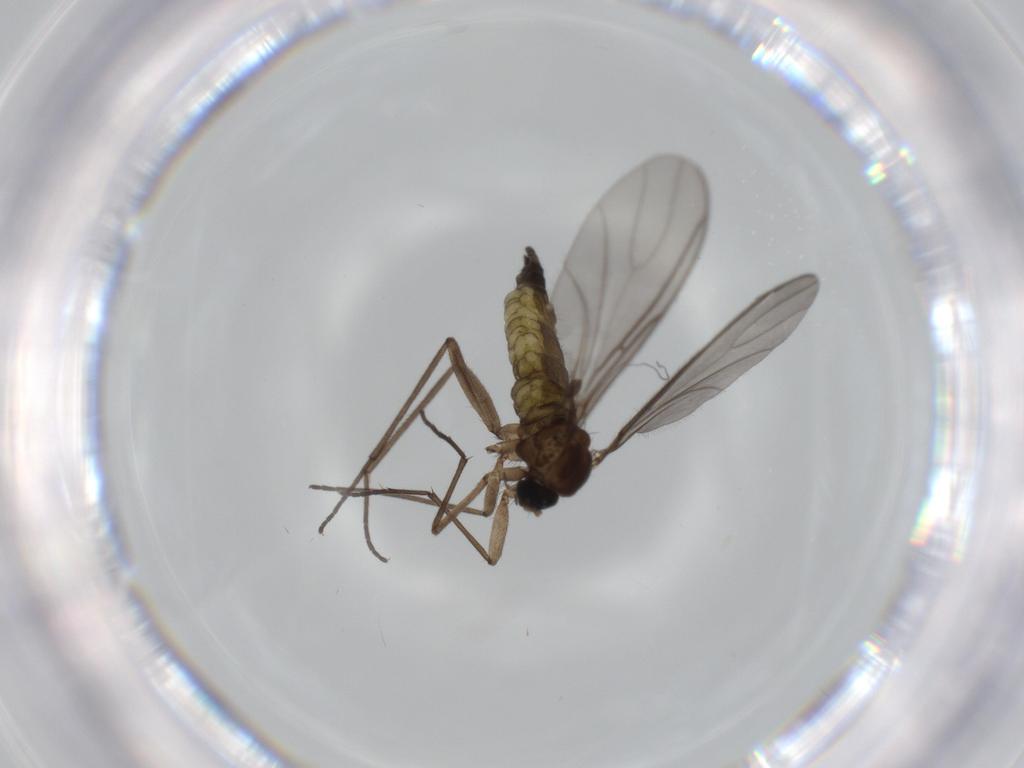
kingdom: Animalia
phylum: Arthropoda
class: Insecta
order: Diptera
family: Sciaridae
